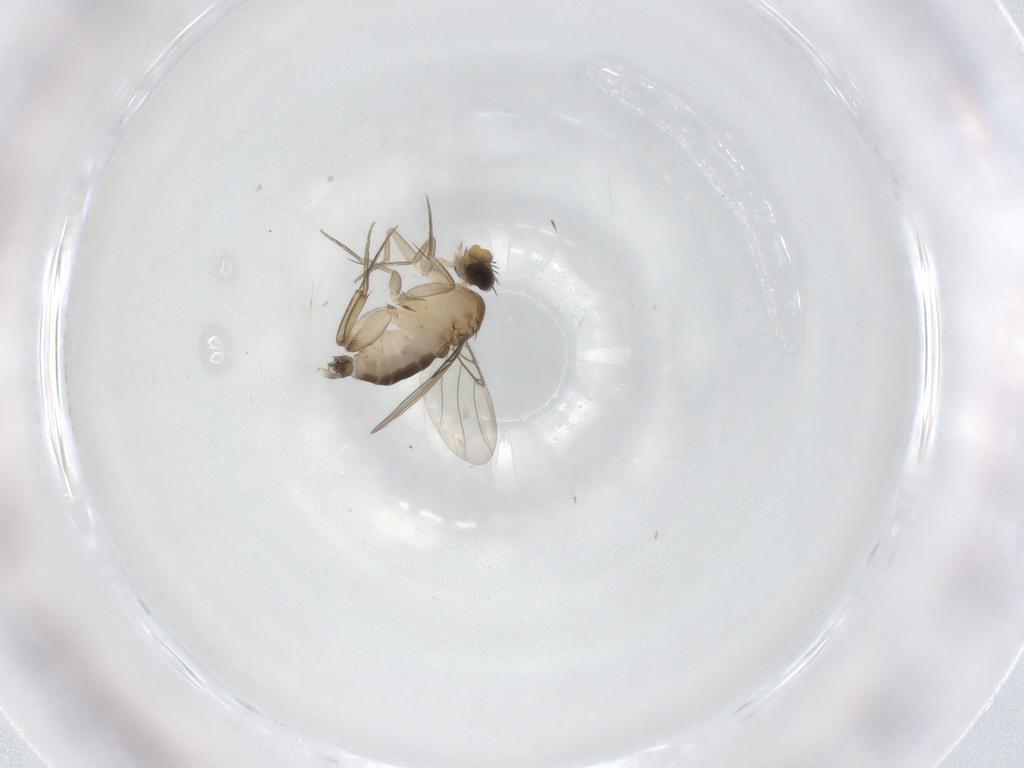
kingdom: Animalia
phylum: Arthropoda
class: Insecta
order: Diptera
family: Phoridae
